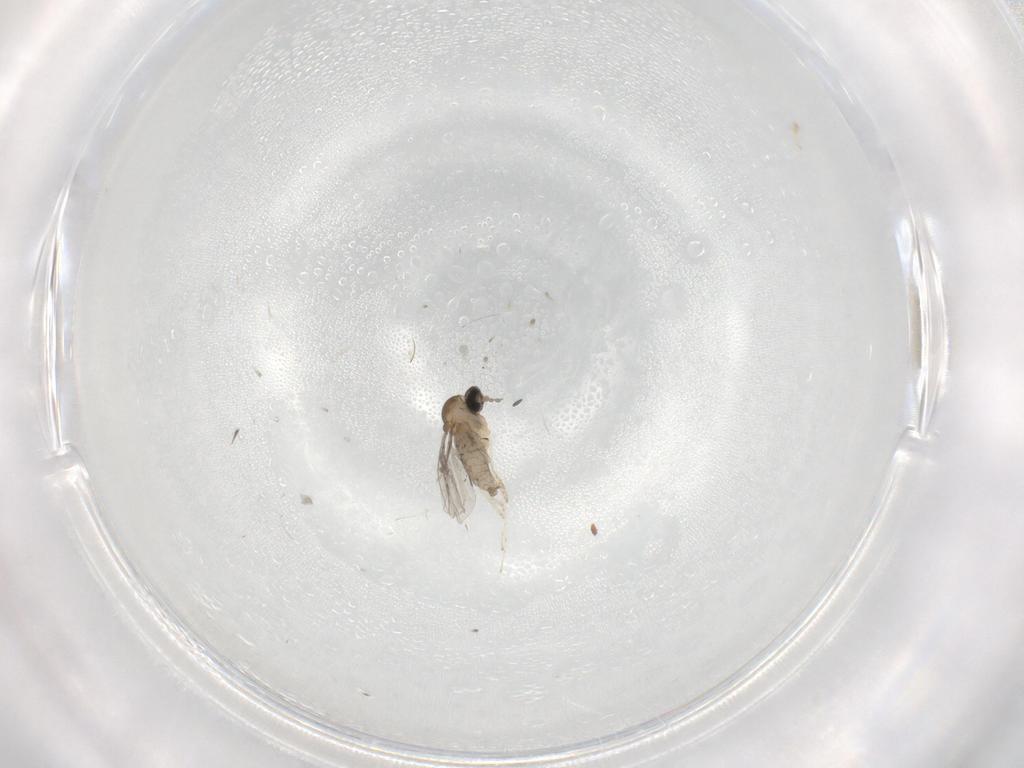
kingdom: Animalia
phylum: Arthropoda
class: Insecta
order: Diptera
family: Cecidomyiidae
